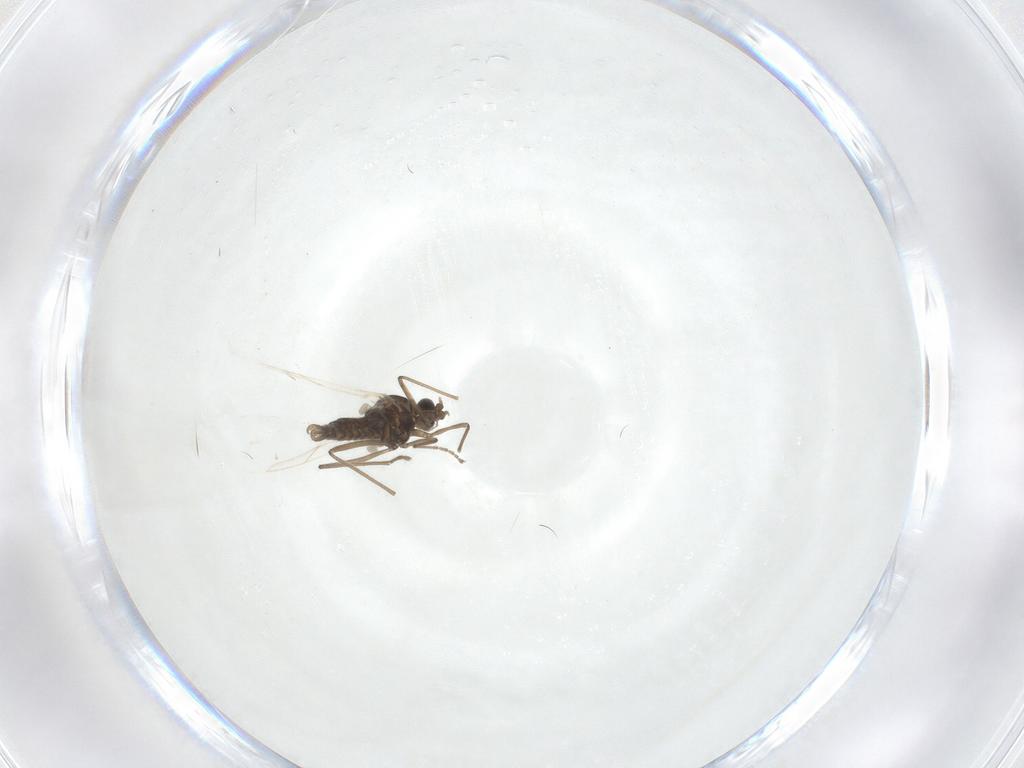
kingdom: Animalia
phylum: Arthropoda
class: Insecta
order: Diptera
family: Cecidomyiidae
